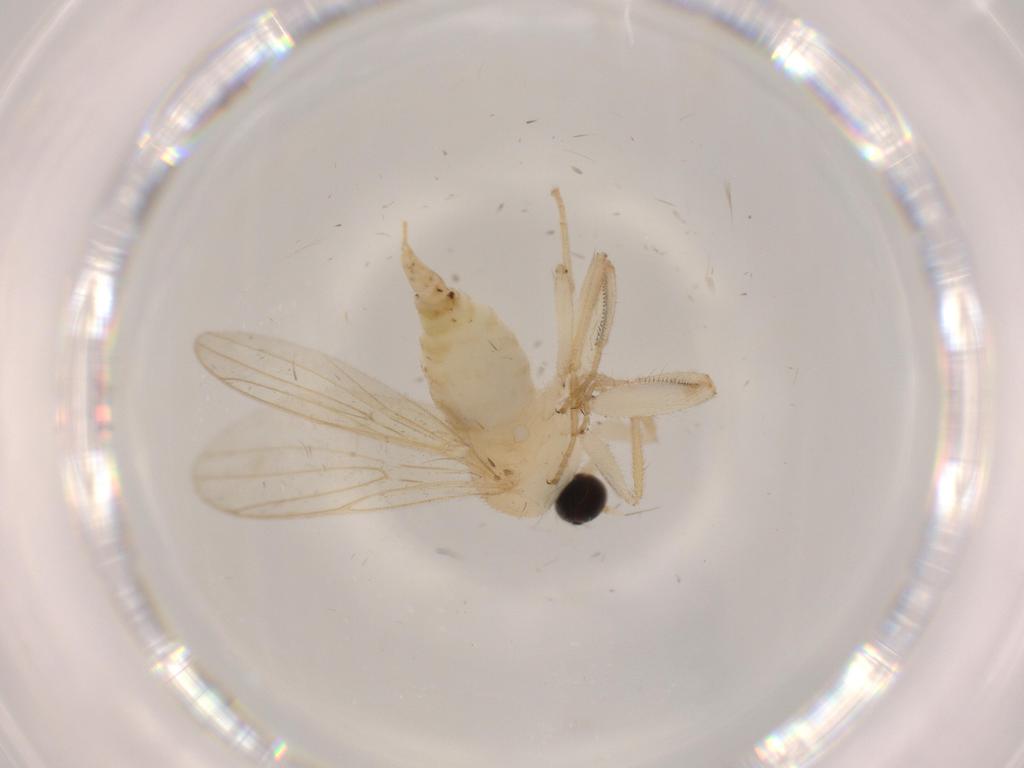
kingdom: Animalia
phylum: Arthropoda
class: Insecta
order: Diptera
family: Hybotidae
